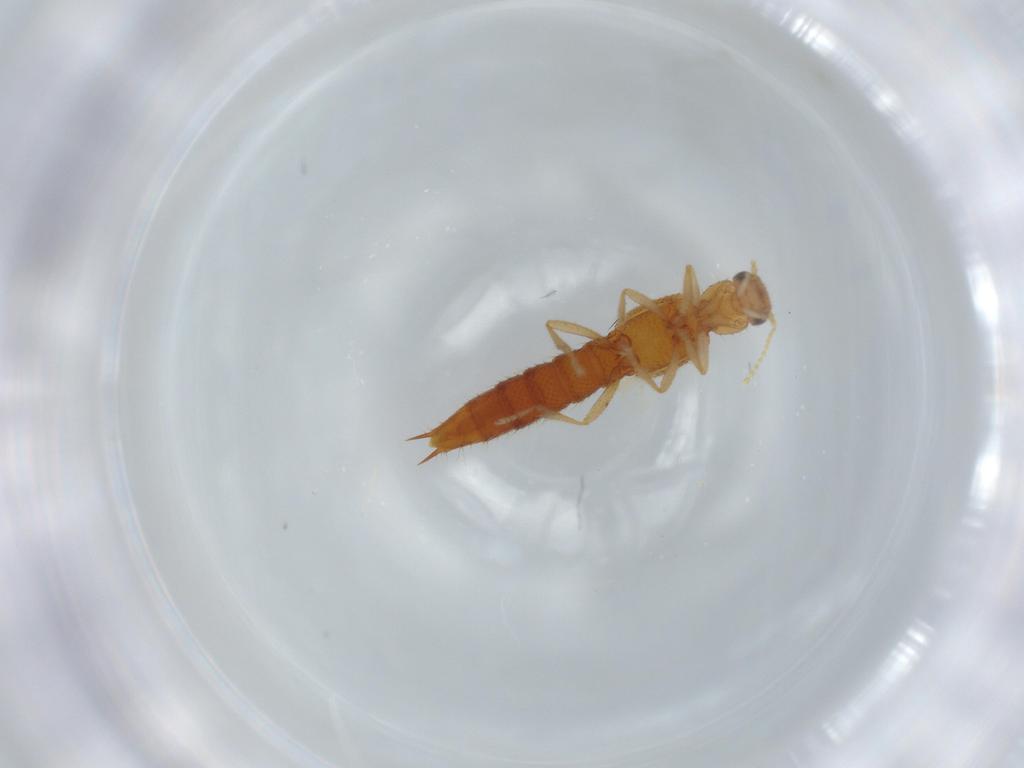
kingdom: Animalia
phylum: Arthropoda
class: Insecta
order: Coleoptera
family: Staphylinidae
